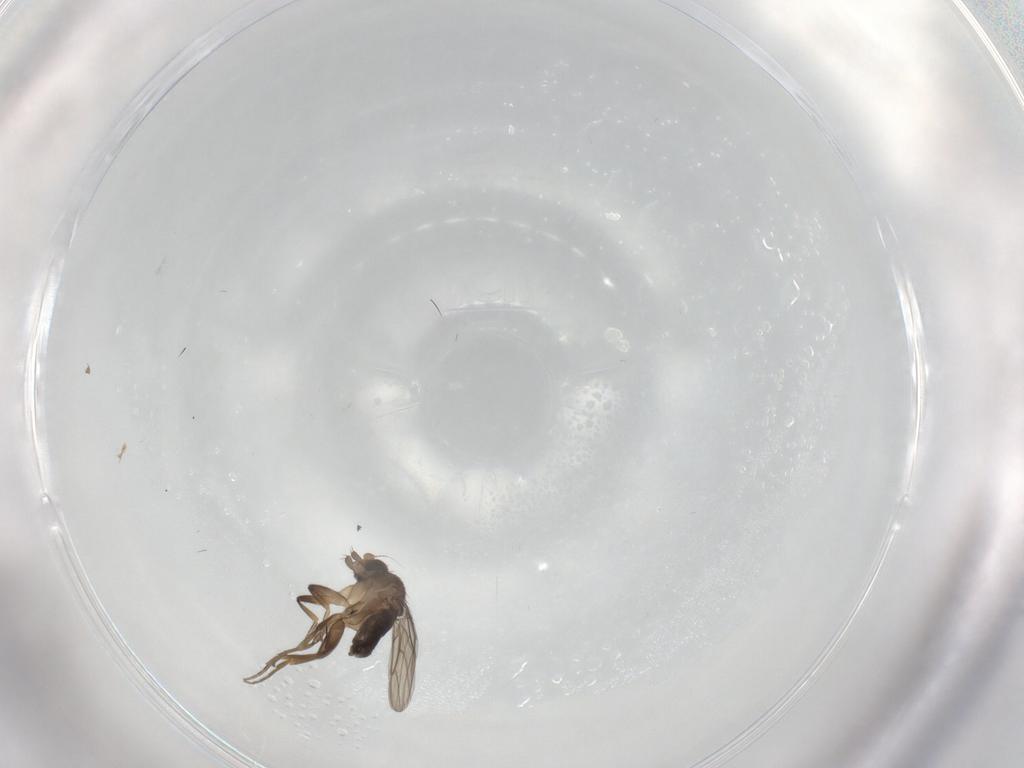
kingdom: Animalia
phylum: Arthropoda
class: Insecta
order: Diptera
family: Phoridae
